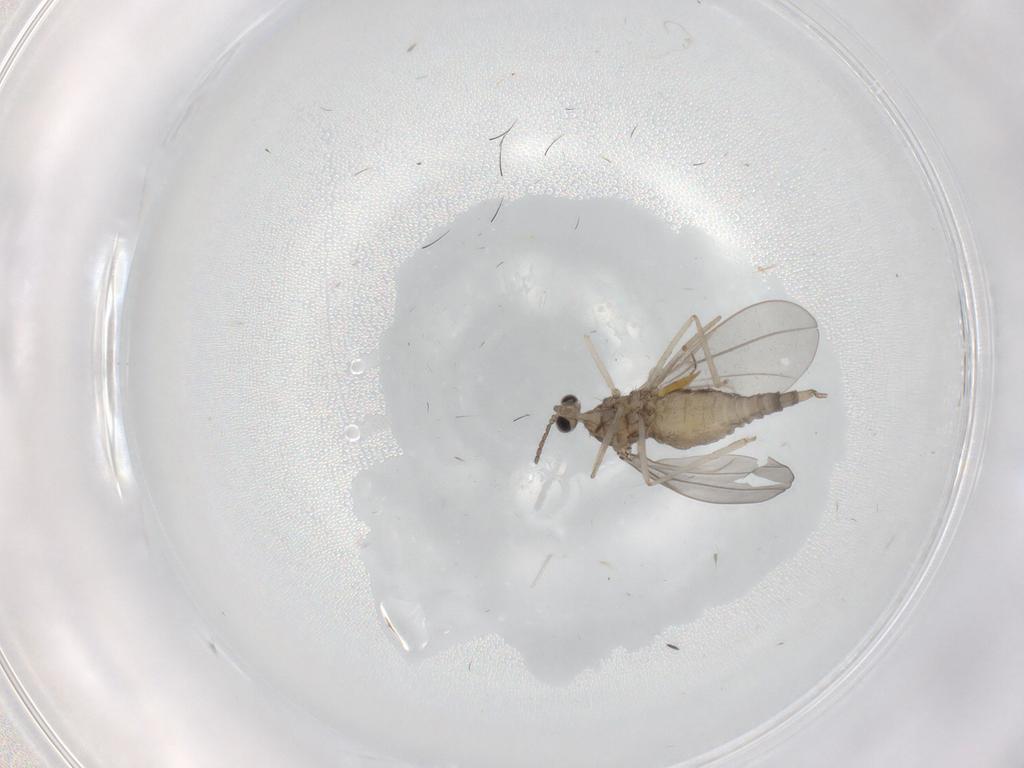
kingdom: Animalia
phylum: Arthropoda
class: Insecta
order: Diptera
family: Cecidomyiidae
